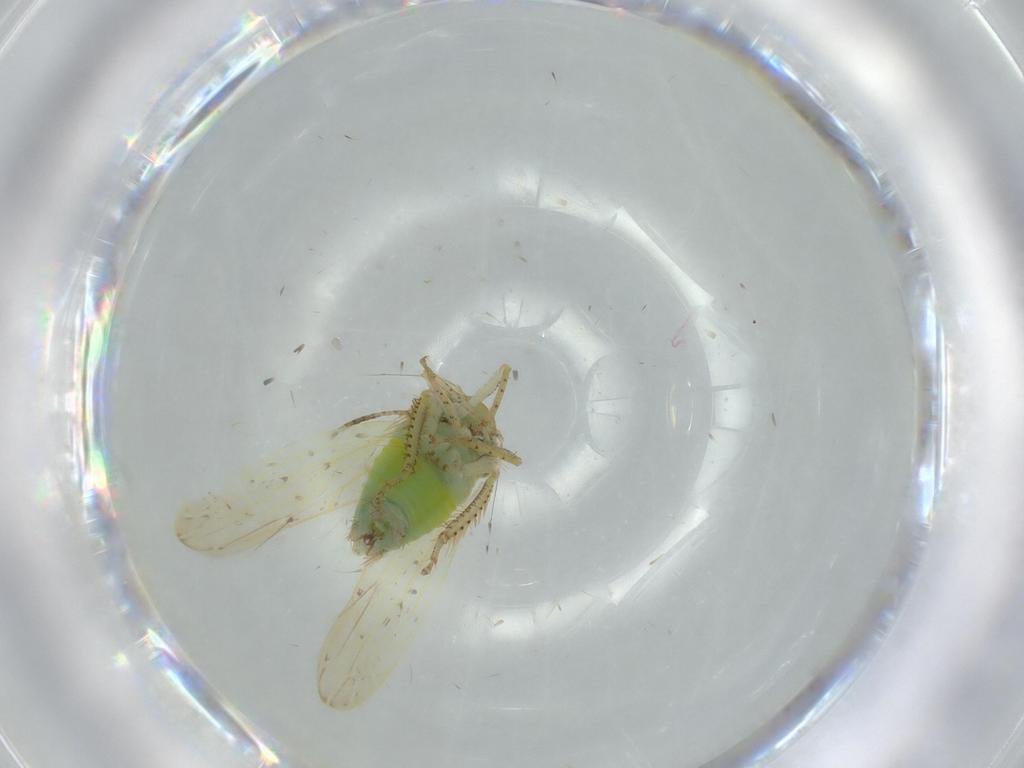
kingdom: Animalia
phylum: Arthropoda
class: Insecta
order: Hemiptera
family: Cicadellidae
